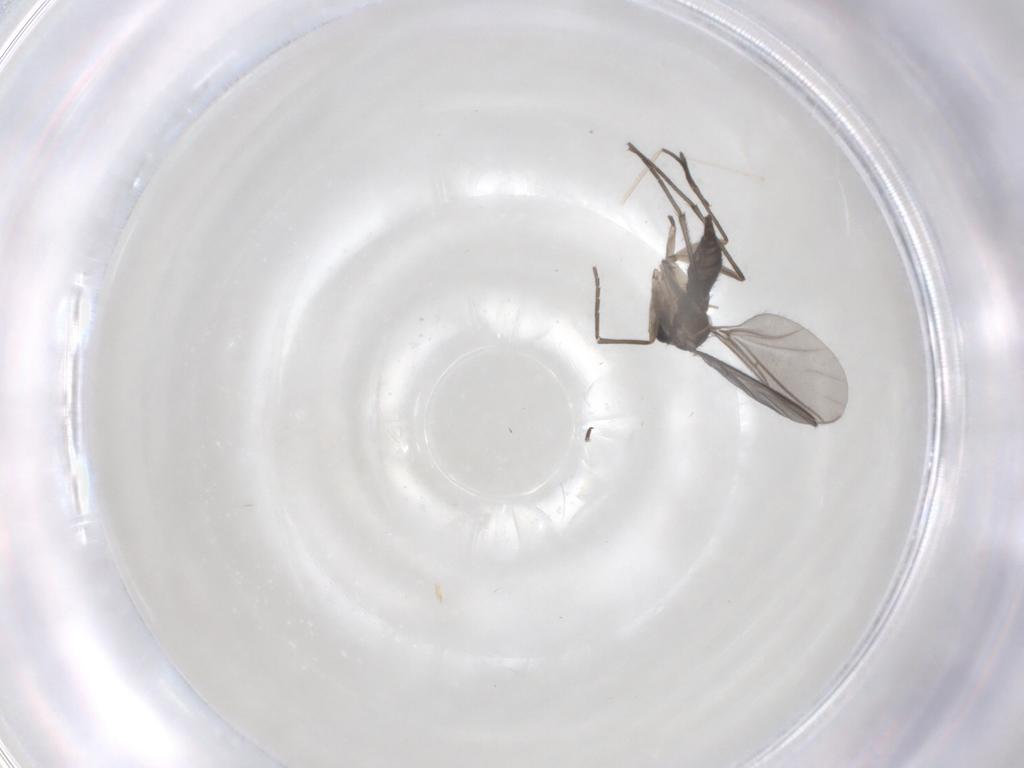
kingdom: Animalia
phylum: Arthropoda
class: Insecta
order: Diptera
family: Sciaridae
